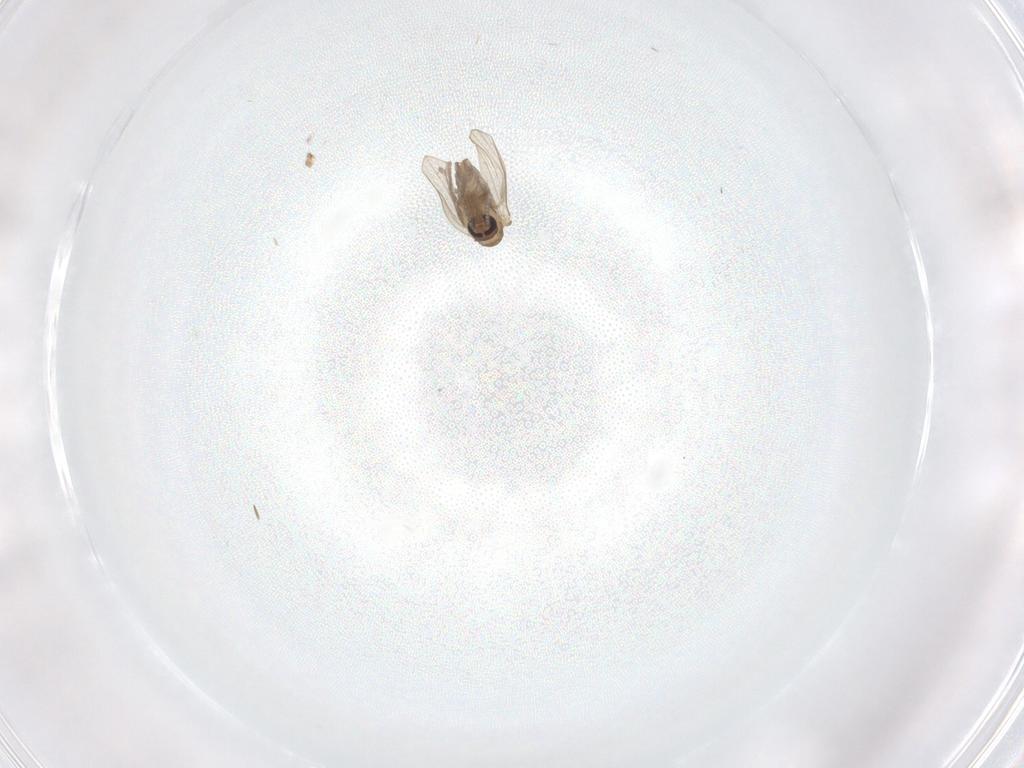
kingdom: Animalia
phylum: Arthropoda
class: Insecta
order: Diptera
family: Psychodidae
